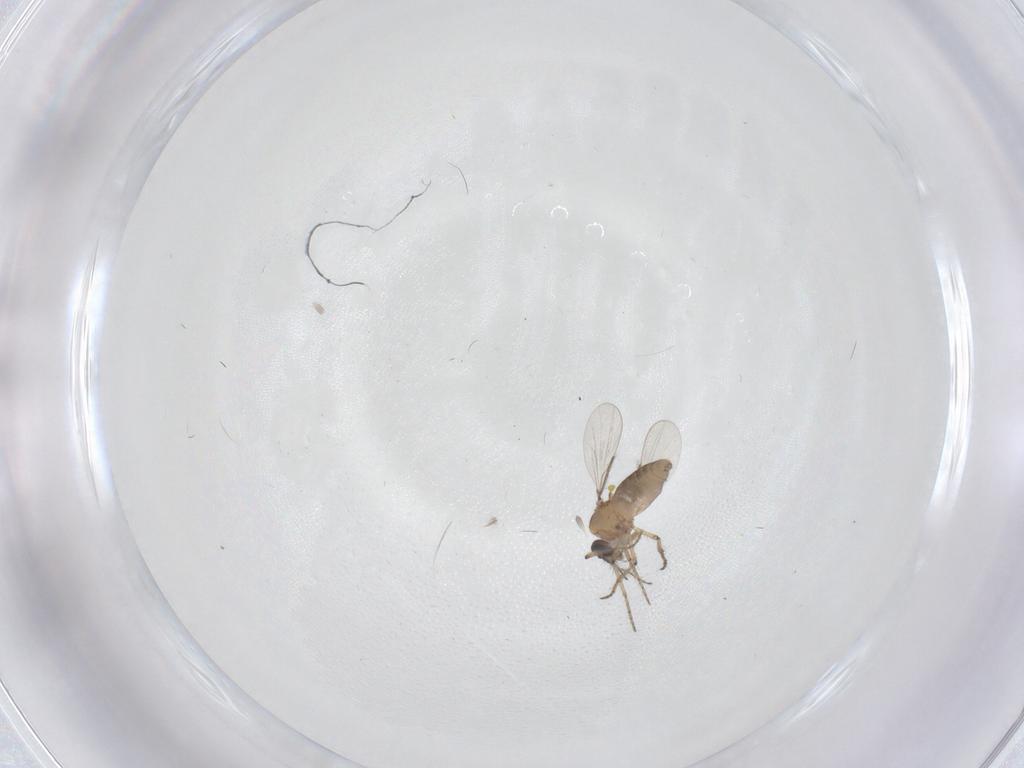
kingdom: Animalia
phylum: Arthropoda
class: Insecta
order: Diptera
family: Ceratopogonidae
